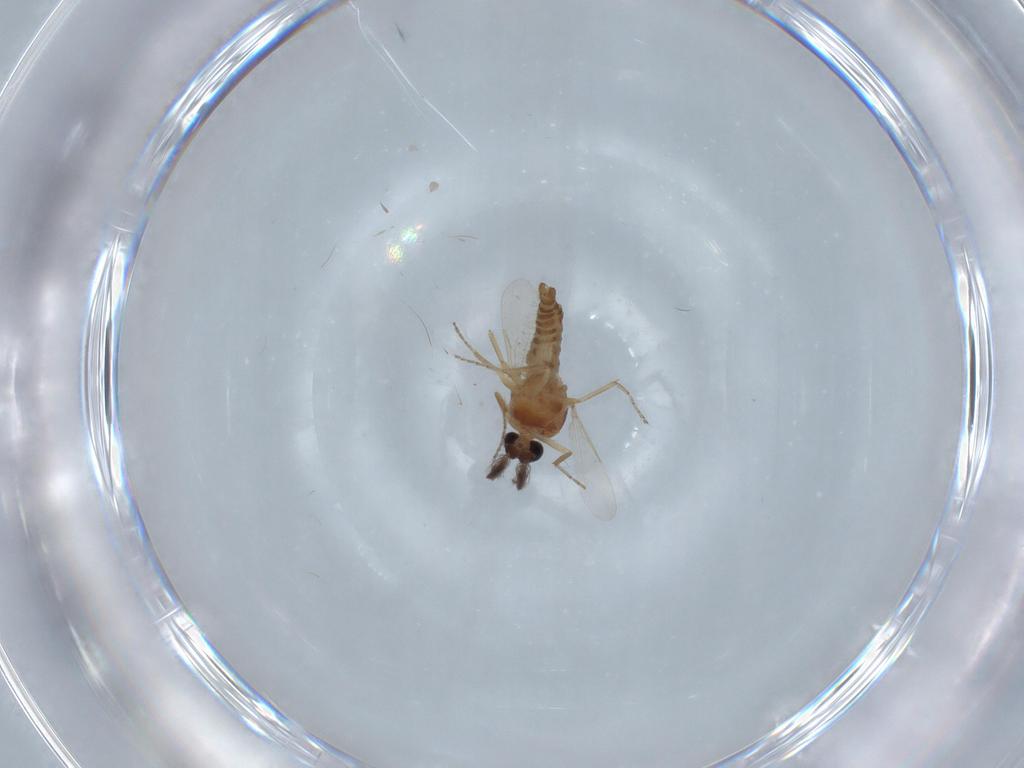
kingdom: Animalia
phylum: Arthropoda
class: Insecta
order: Diptera
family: Ceratopogonidae
